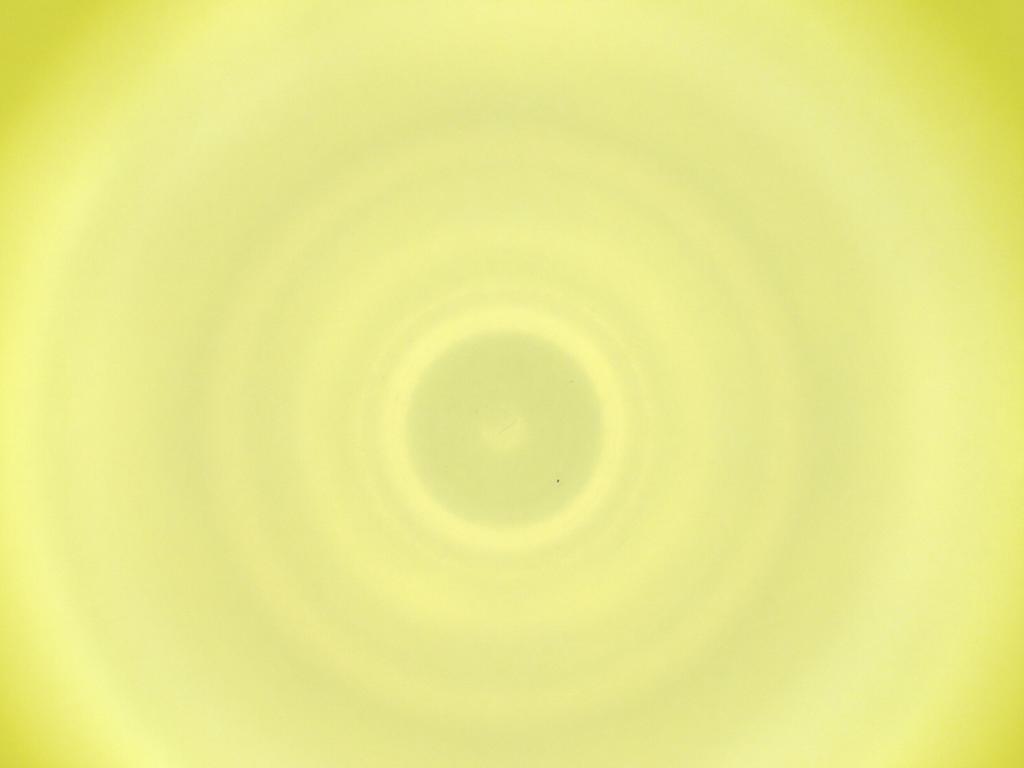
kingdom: Animalia
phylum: Arthropoda
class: Insecta
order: Diptera
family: Cecidomyiidae
